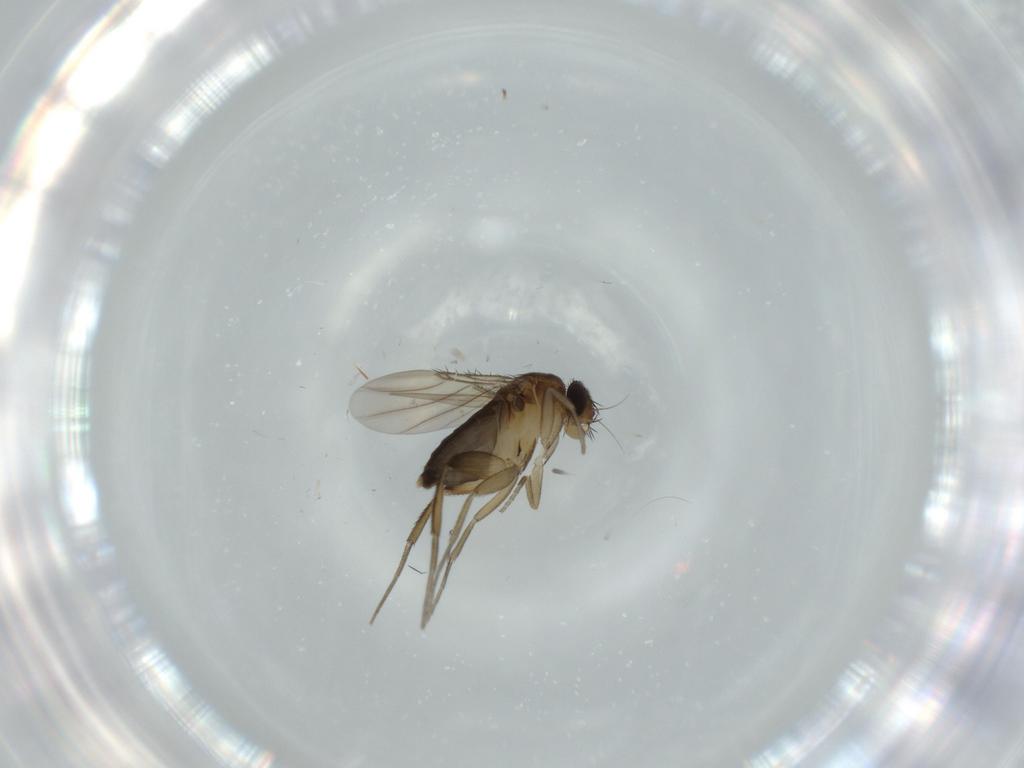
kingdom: Animalia
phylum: Arthropoda
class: Insecta
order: Diptera
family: Phoridae
